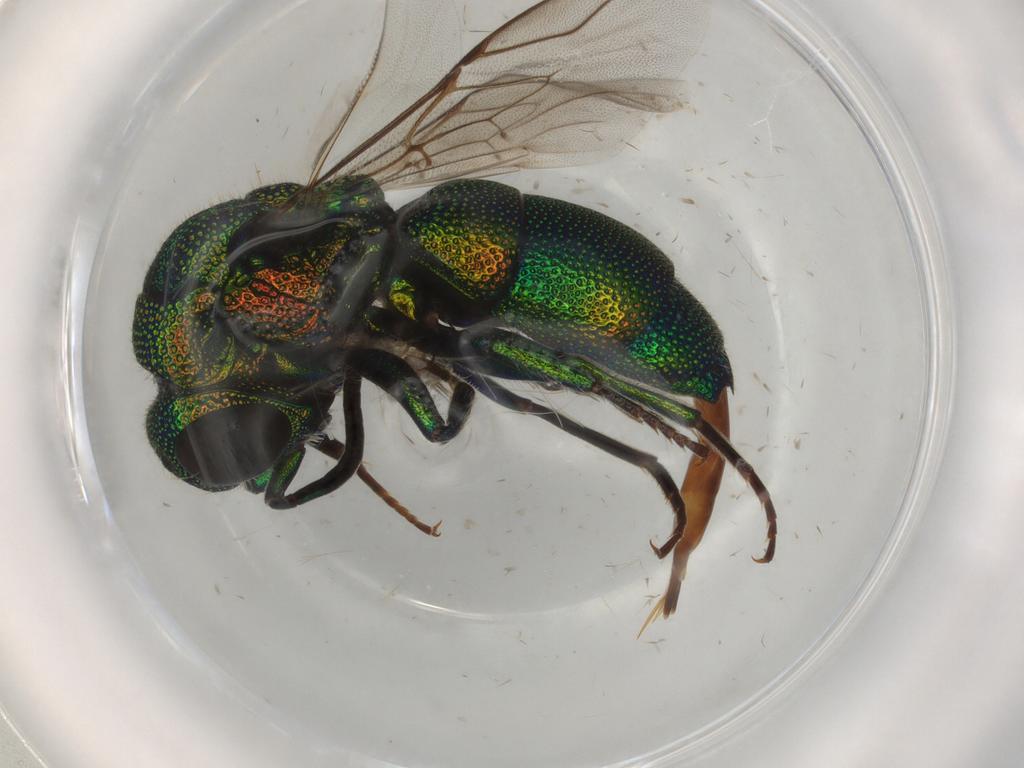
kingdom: Animalia
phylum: Arthropoda
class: Insecta
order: Hymenoptera
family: Chrysididae
